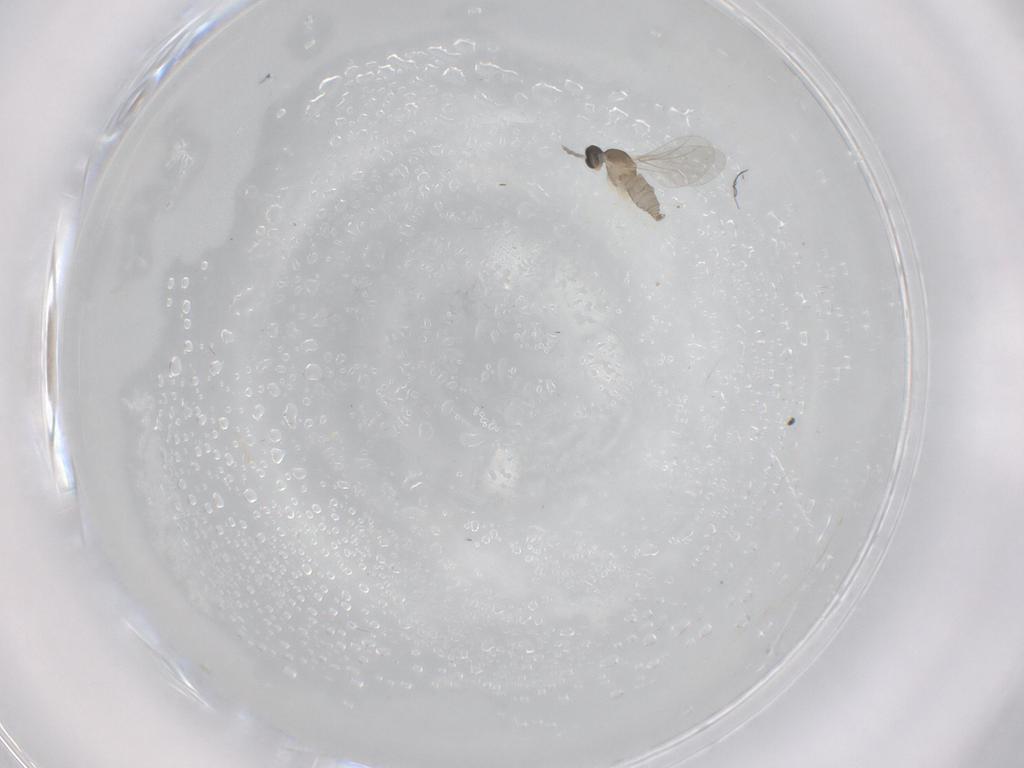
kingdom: Animalia
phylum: Arthropoda
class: Insecta
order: Diptera
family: Cecidomyiidae
